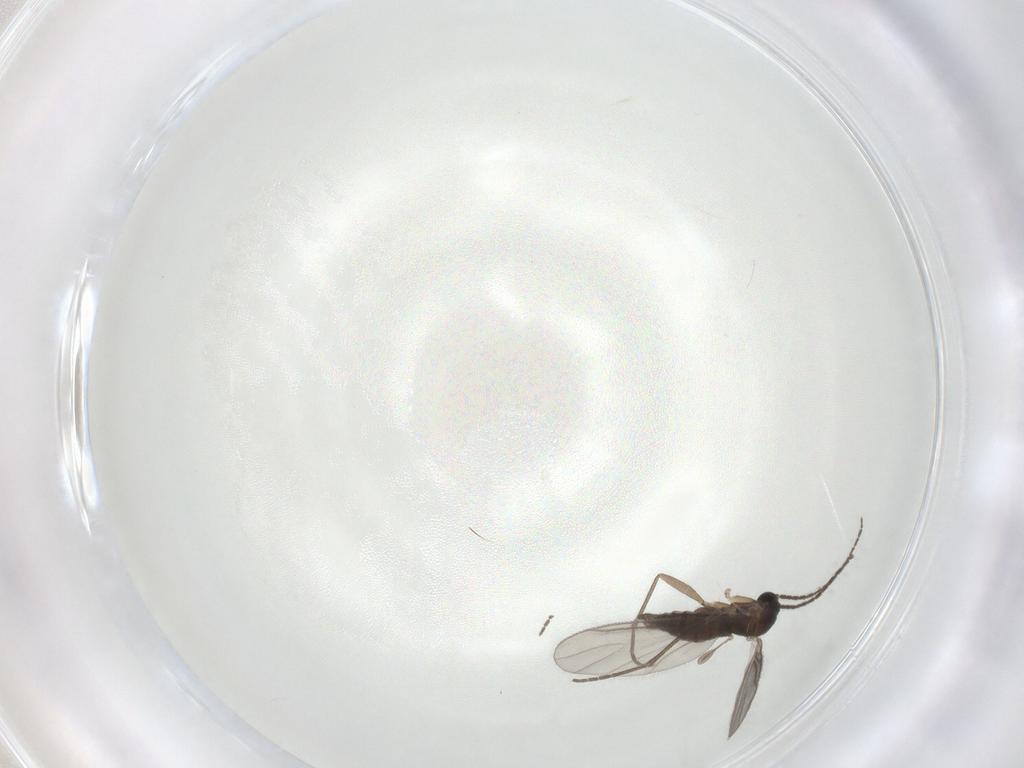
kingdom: Animalia
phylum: Arthropoda
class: Insecta
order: Diptera
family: Sciaridae
